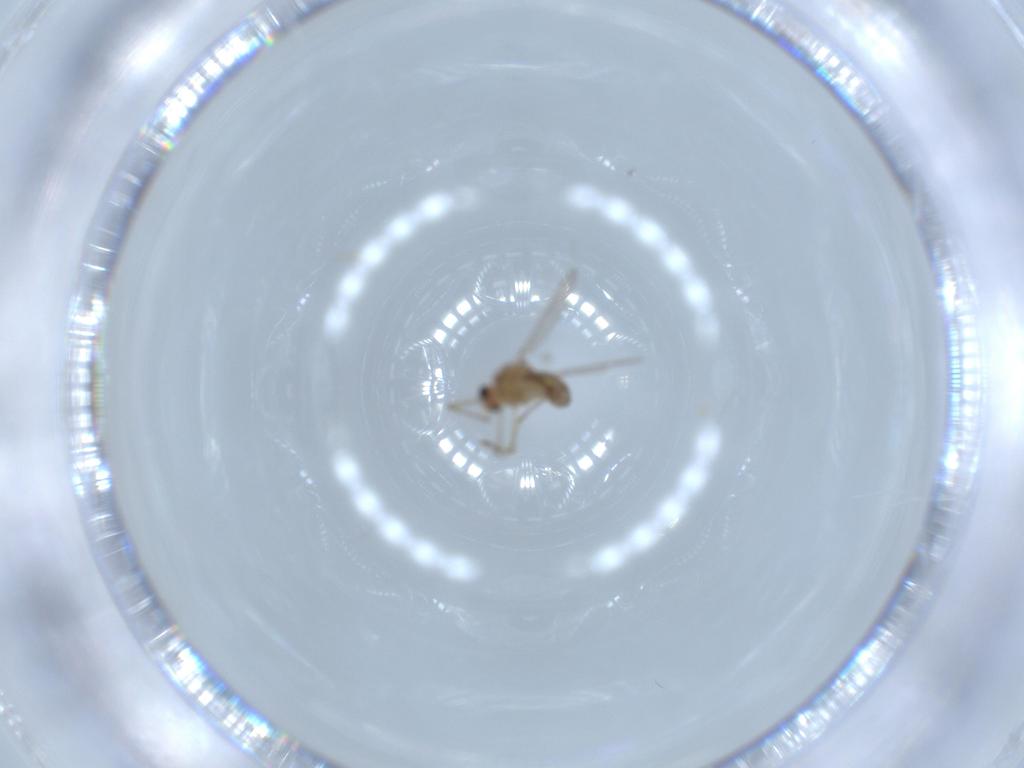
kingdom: Animalia
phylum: Arthropoda
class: Insecta
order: Diptera
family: Chironomidae
